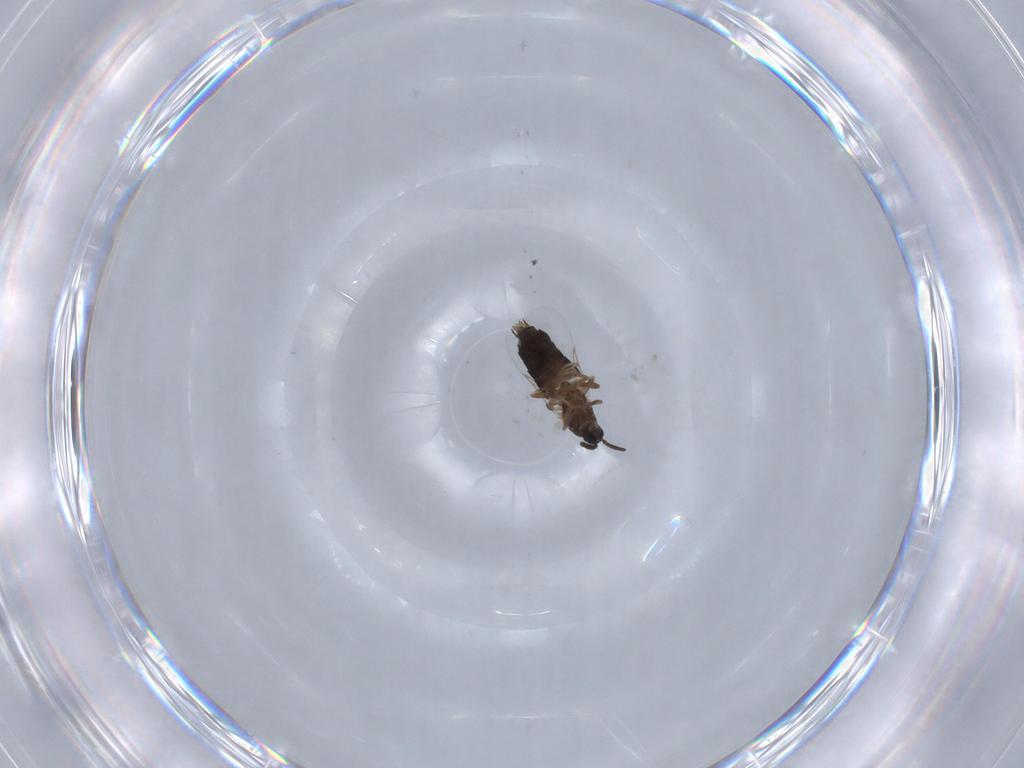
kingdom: Animalia
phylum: Arthropoda
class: Insecta
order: Diptera
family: Scatopsidae
